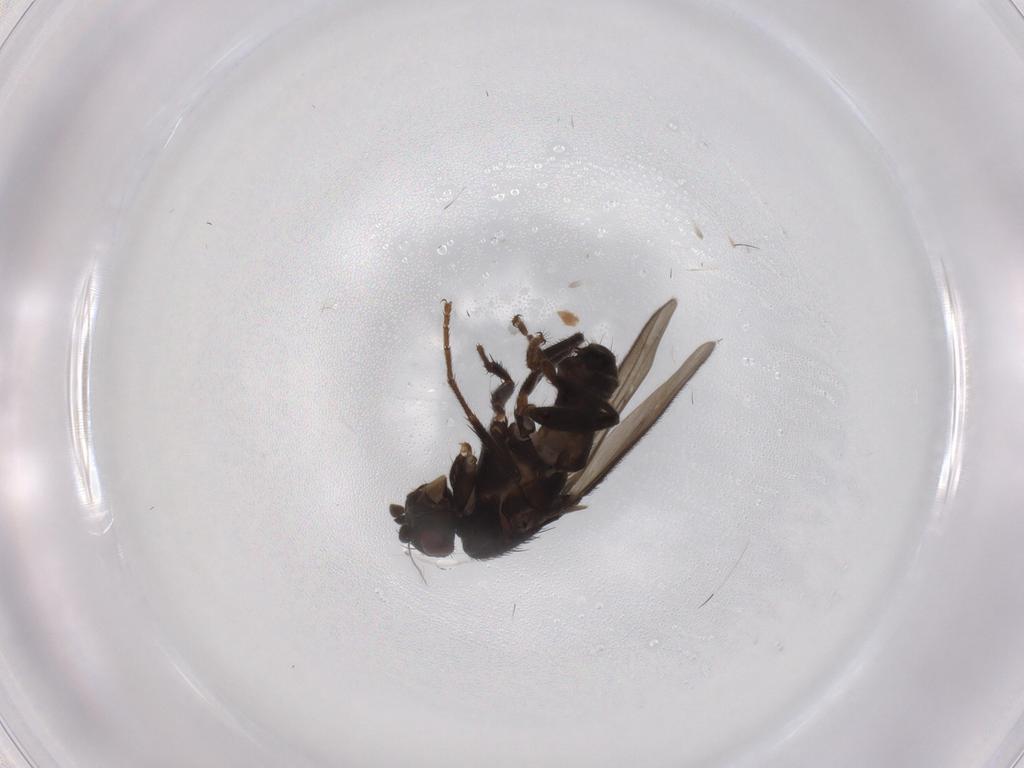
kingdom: Animalia
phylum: Arthropoda
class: Insecta
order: Diptera
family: Sphaeroceridae
